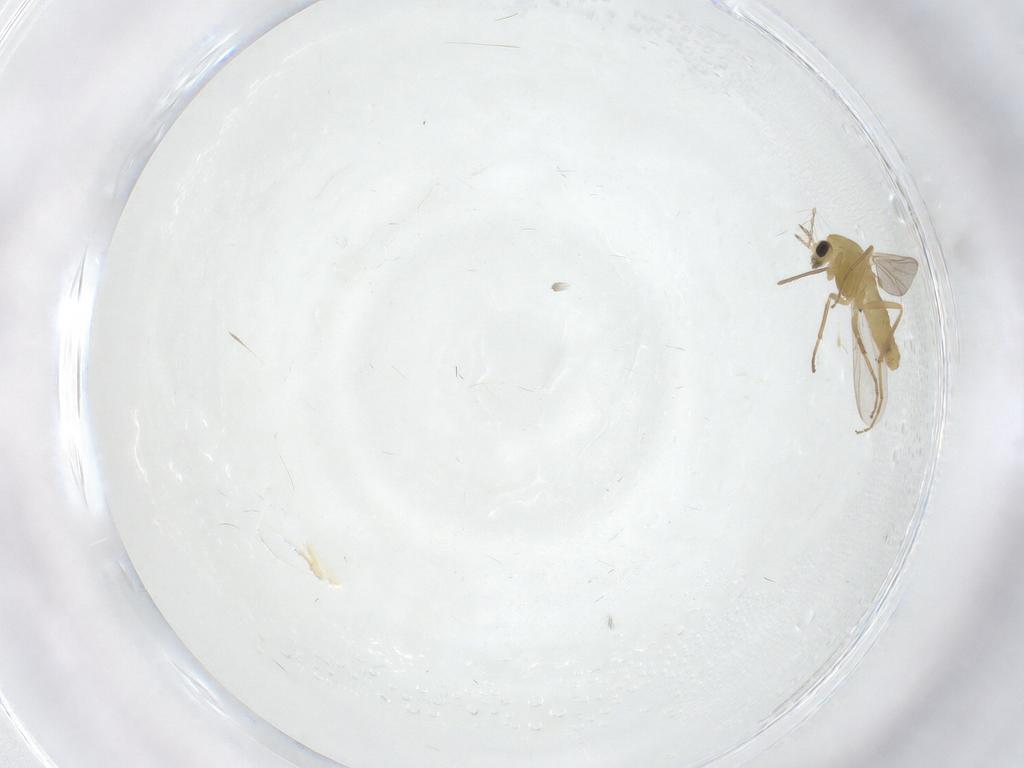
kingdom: Animalia
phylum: Arthropoda
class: Insecta
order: Diptera
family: Chironomidae
